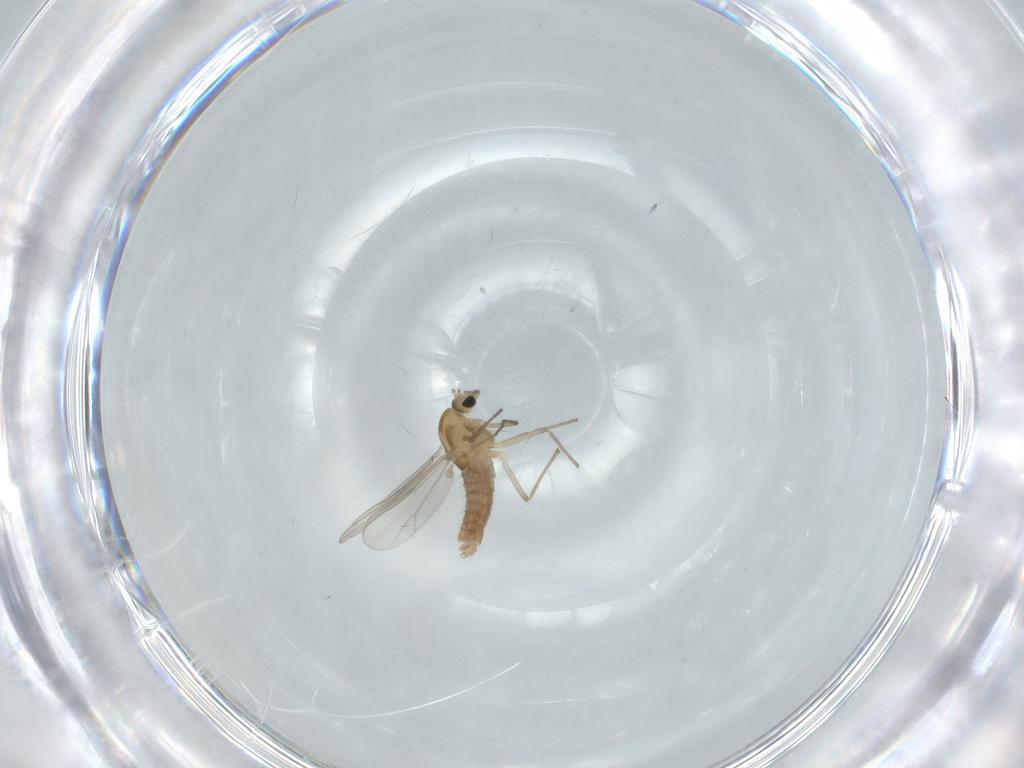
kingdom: Animalia
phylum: Arthropoda
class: Insecta
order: Diptera
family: Chironomidae
